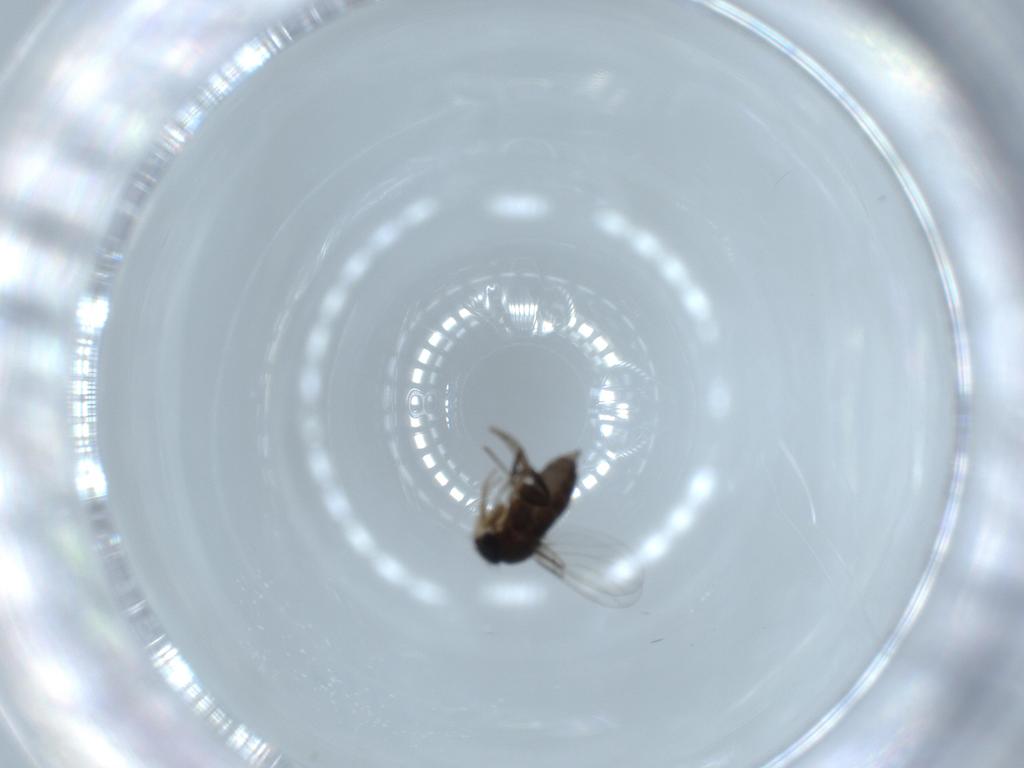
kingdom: Animalia
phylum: Arthropoda
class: Insecta
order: Diptera
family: Phoridae
